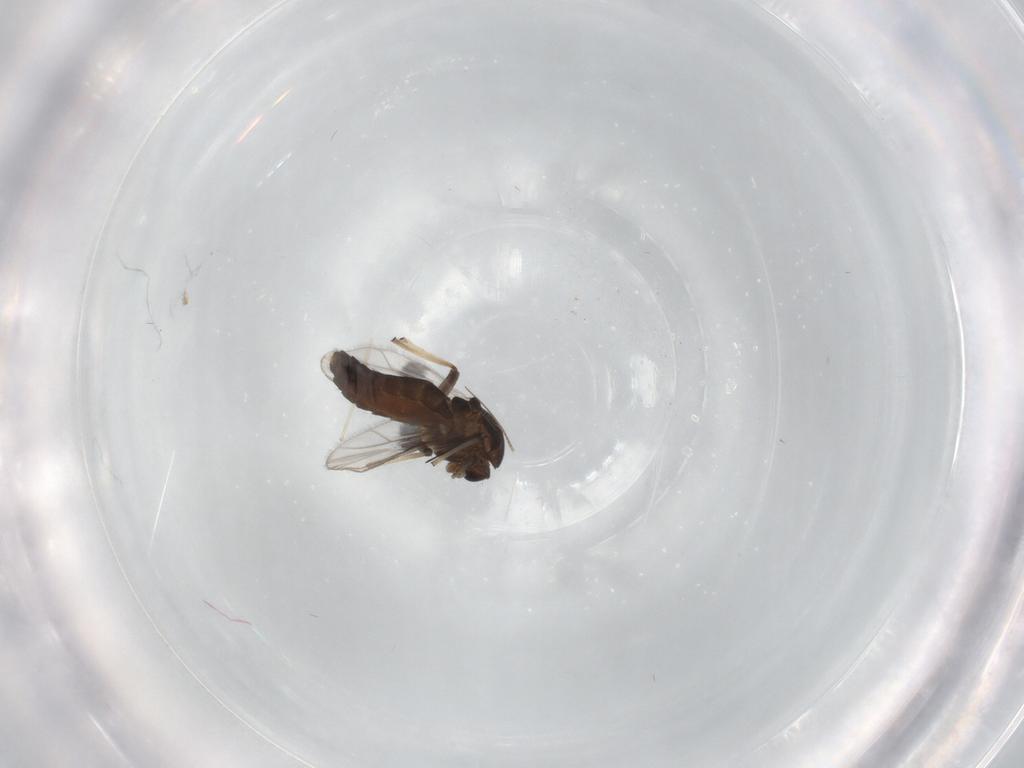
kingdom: Animalia
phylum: Arthropoda
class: Insecta
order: Diptera
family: Chironomidae
